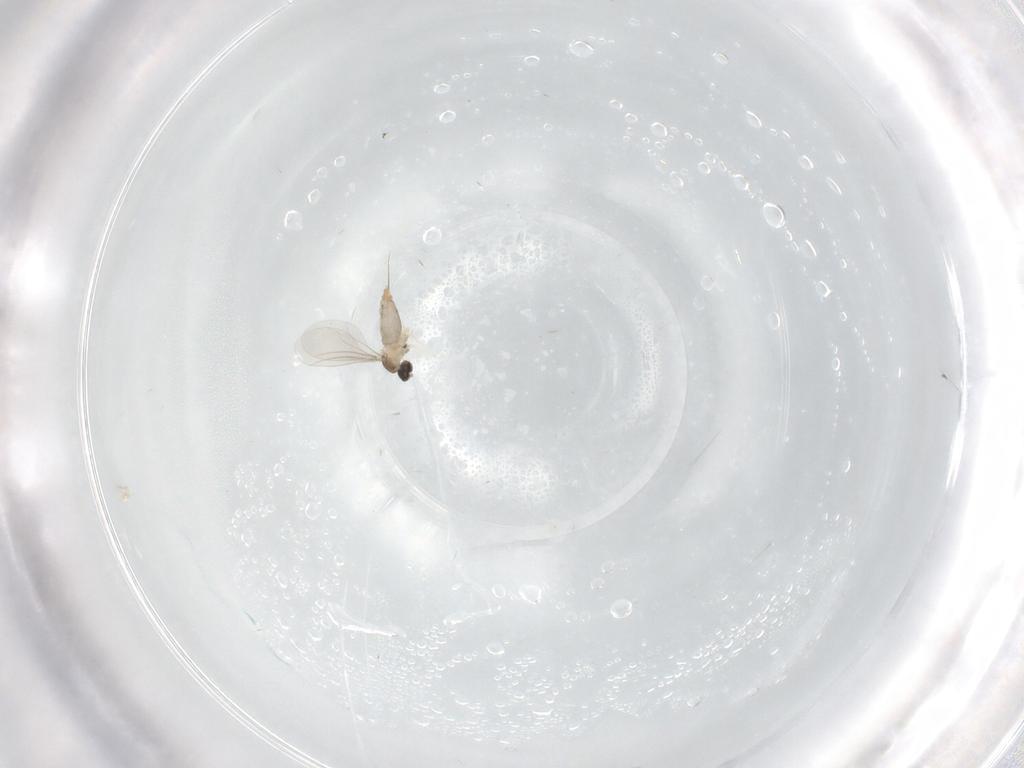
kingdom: Animalia
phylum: Arthropoda
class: Insecta
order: Diptera
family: Cecidomyiidae
